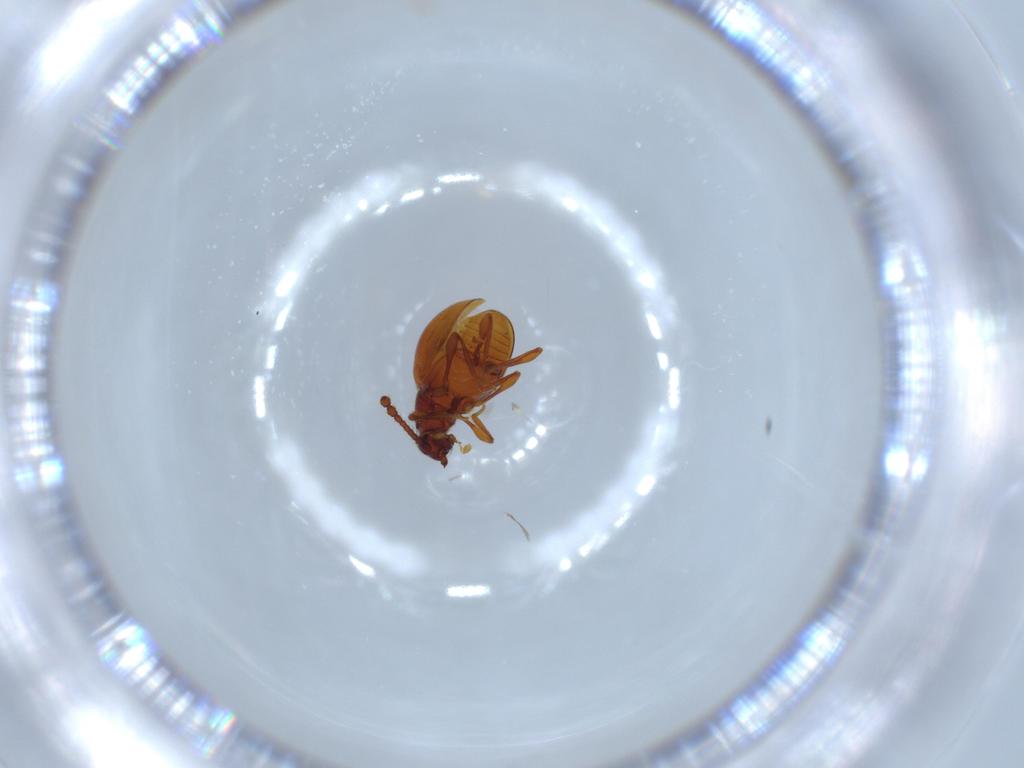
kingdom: Animalia
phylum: Arthropoda
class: Insecta
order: Coleoptera
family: Staphylinidae
